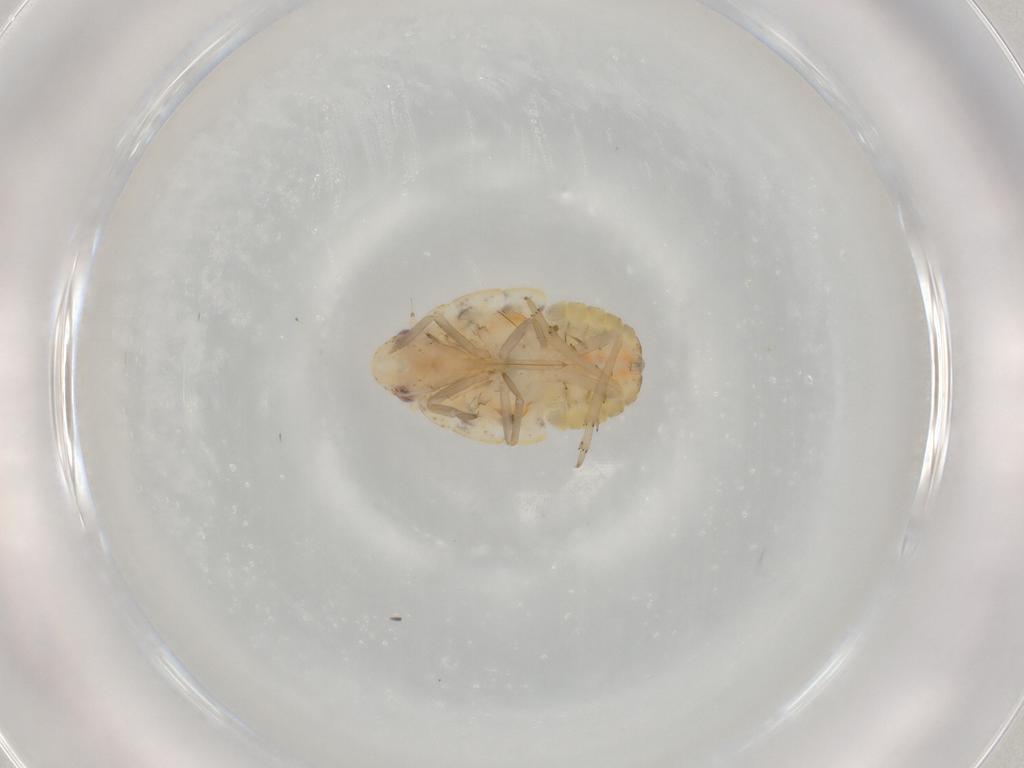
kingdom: Animalia
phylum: Arthropoda
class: Insecta
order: Hemiptera
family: Flatidae
